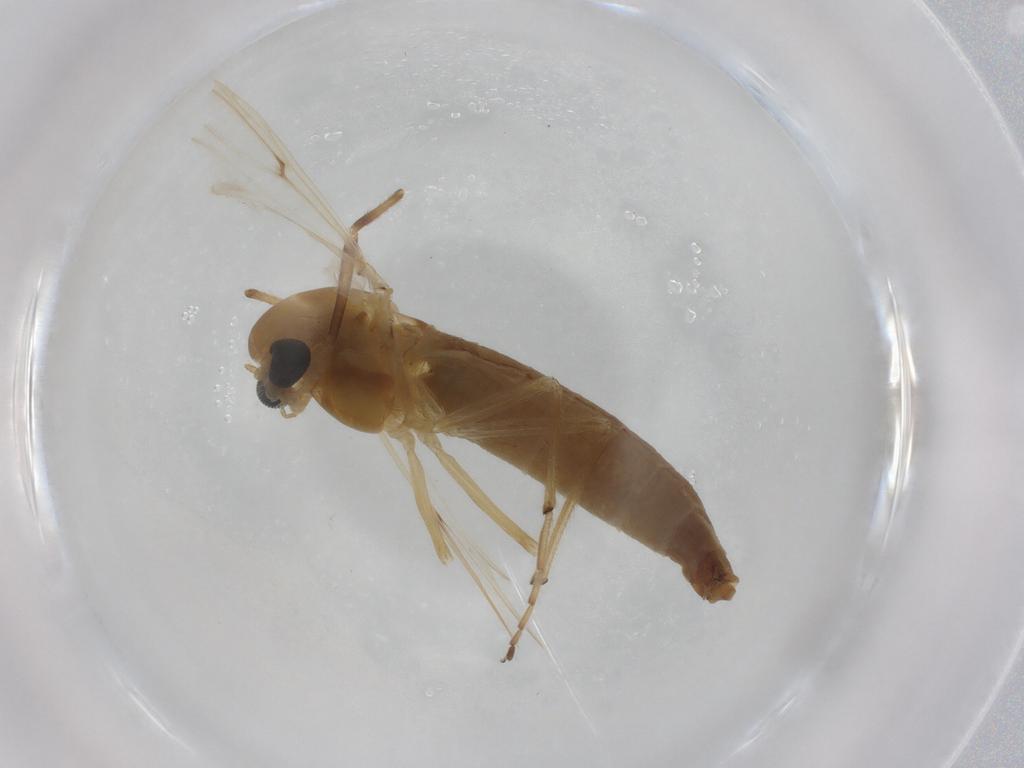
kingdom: Animalia
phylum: Arthropoda
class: Insecta
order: Diptera
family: Chironomidae
